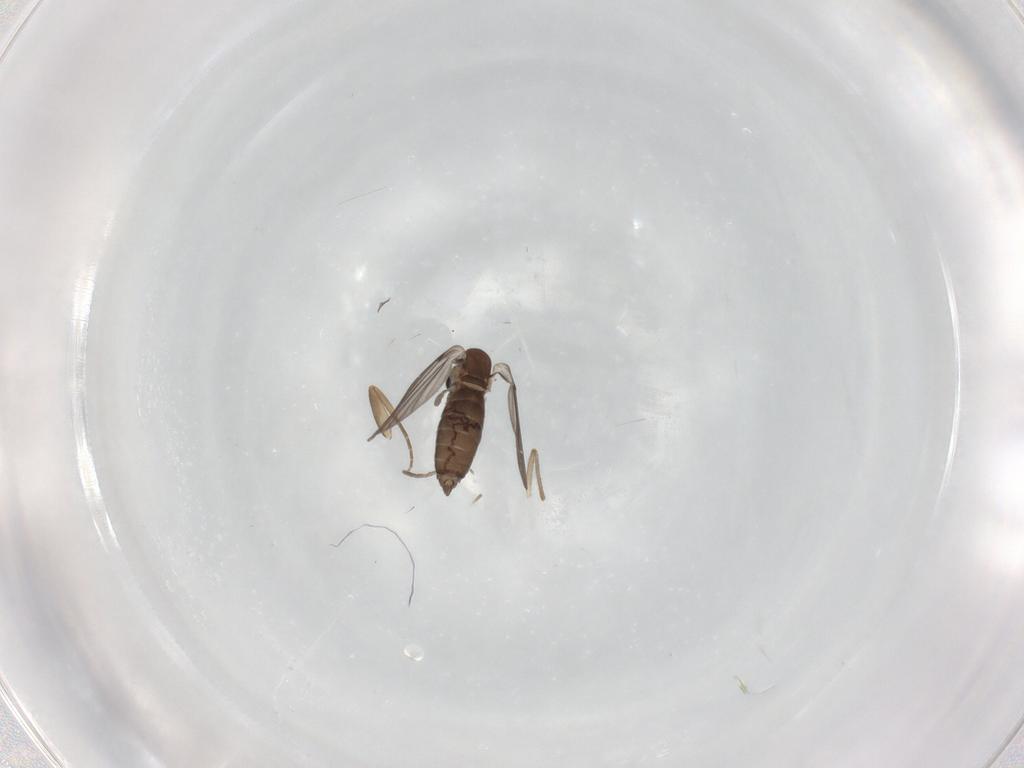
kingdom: Animalia
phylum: Arthropoda
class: Insecta
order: Diptera
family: Phoridae
